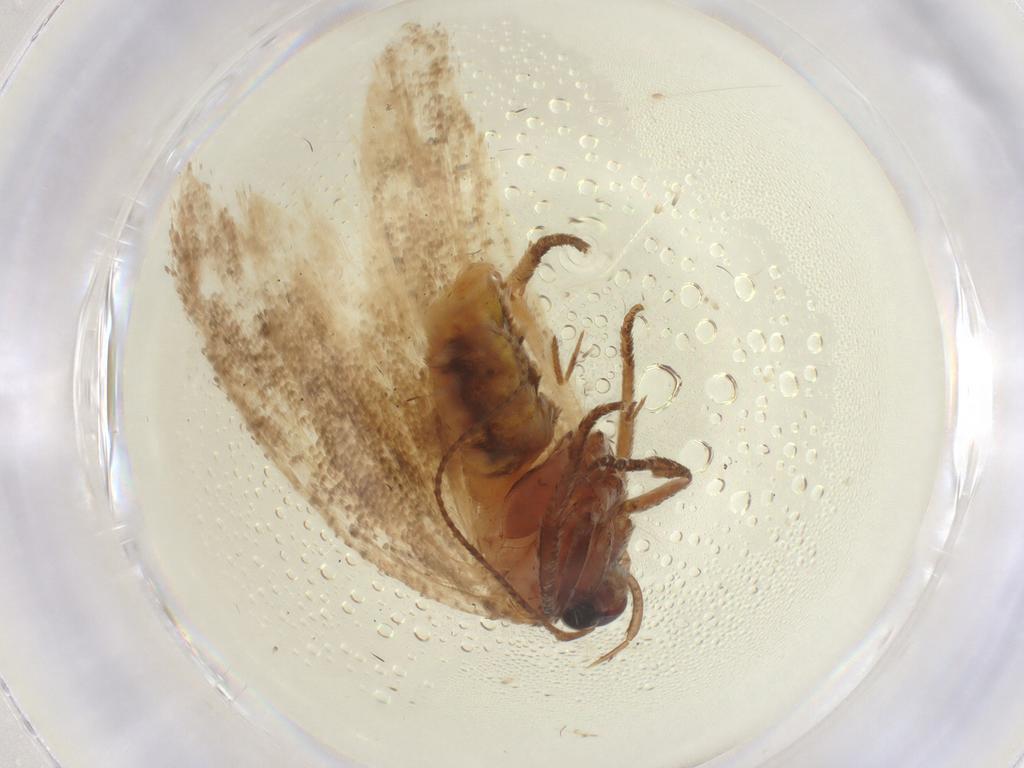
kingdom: Animalia
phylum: Arthropoda
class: Insecta
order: Lepidoptera
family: Cosmopterigidae
